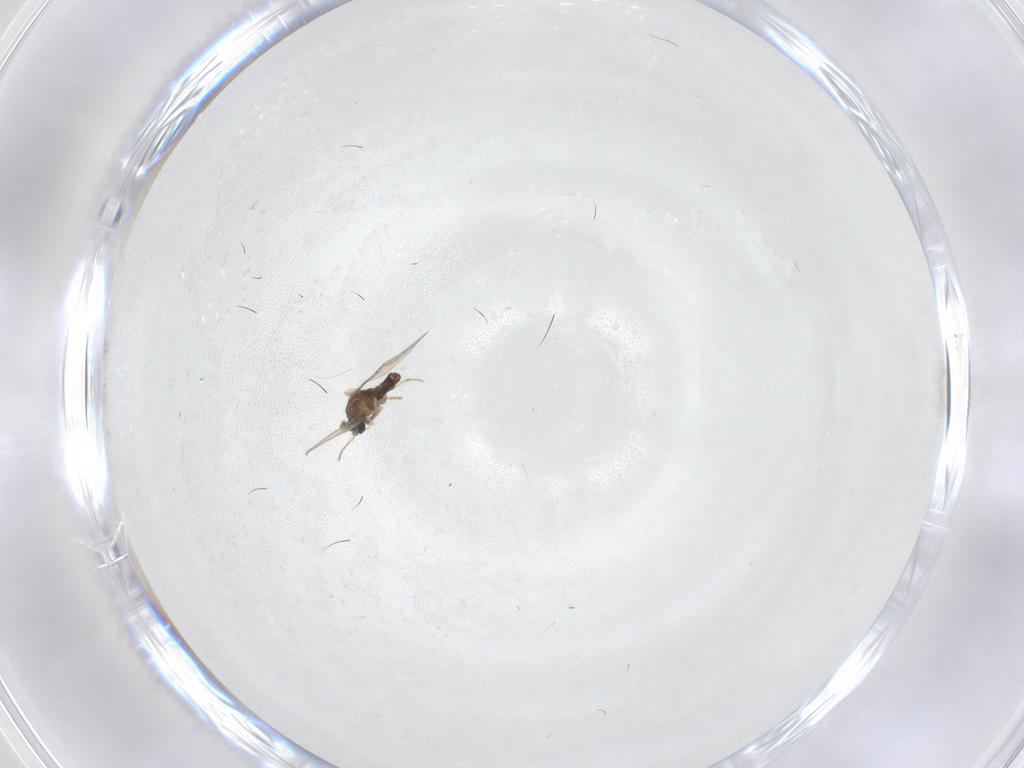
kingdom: Animalia
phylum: Arthropoda
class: Insecta
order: Diptera
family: Cecidomyiidae
